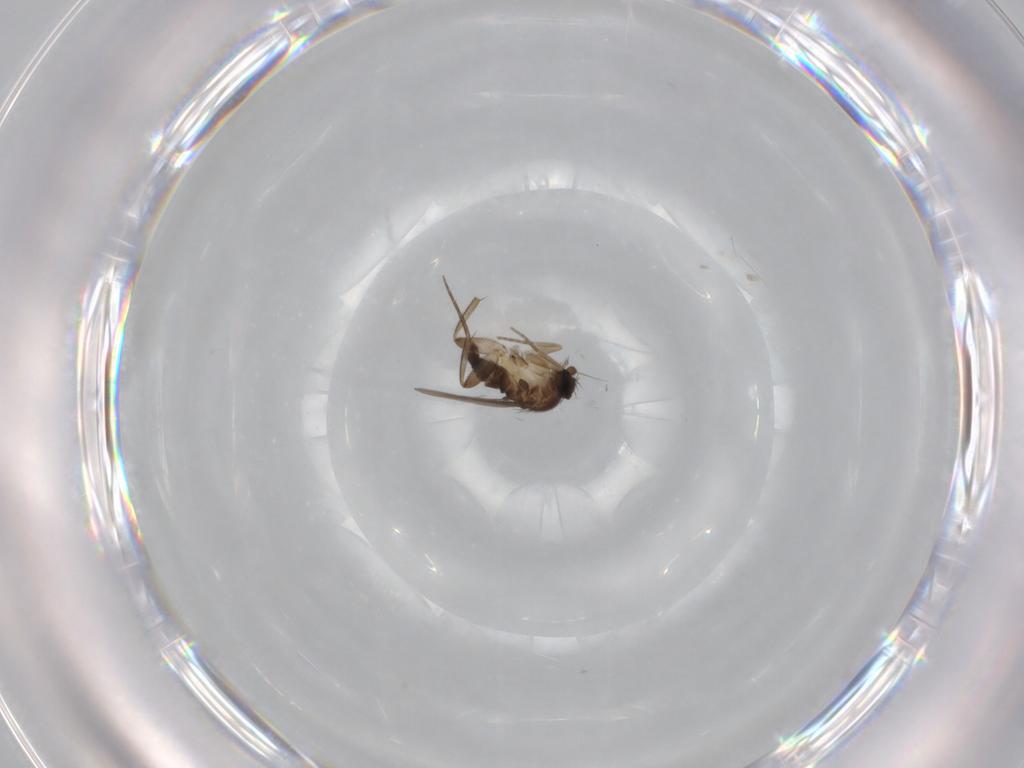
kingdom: Animalia
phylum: Arthropoda
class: Insecta
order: Diptera
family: Phoridae
